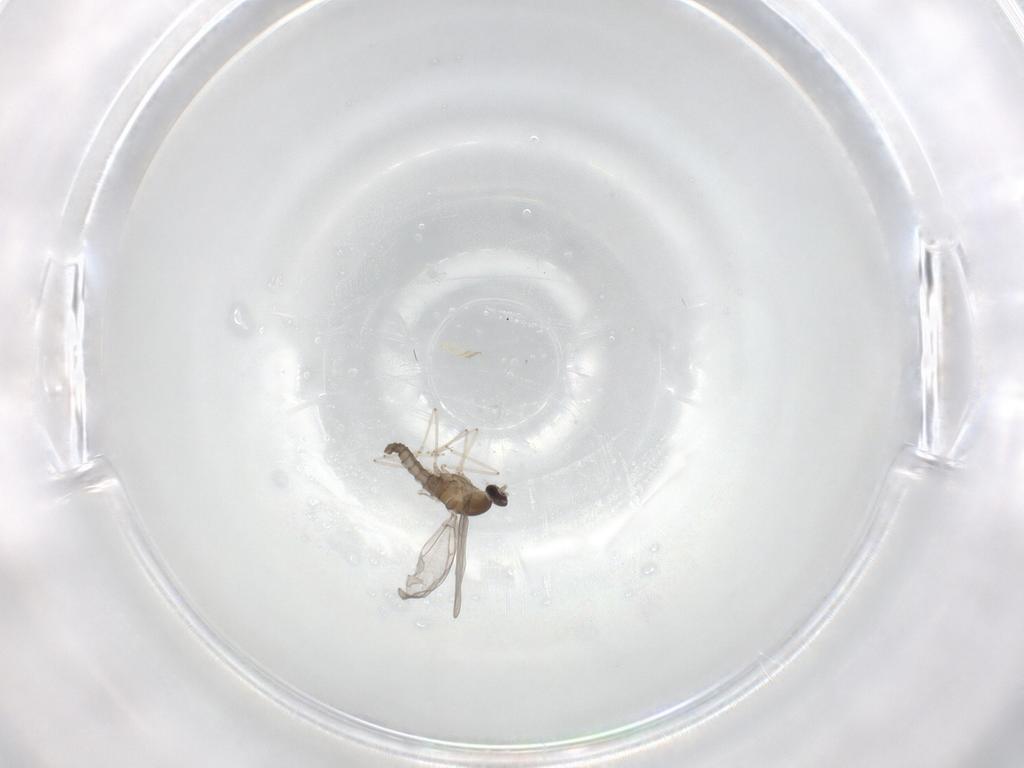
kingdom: Animalia
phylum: Arthropoda
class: Insecta
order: Diptera
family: Cecidomyiidae
